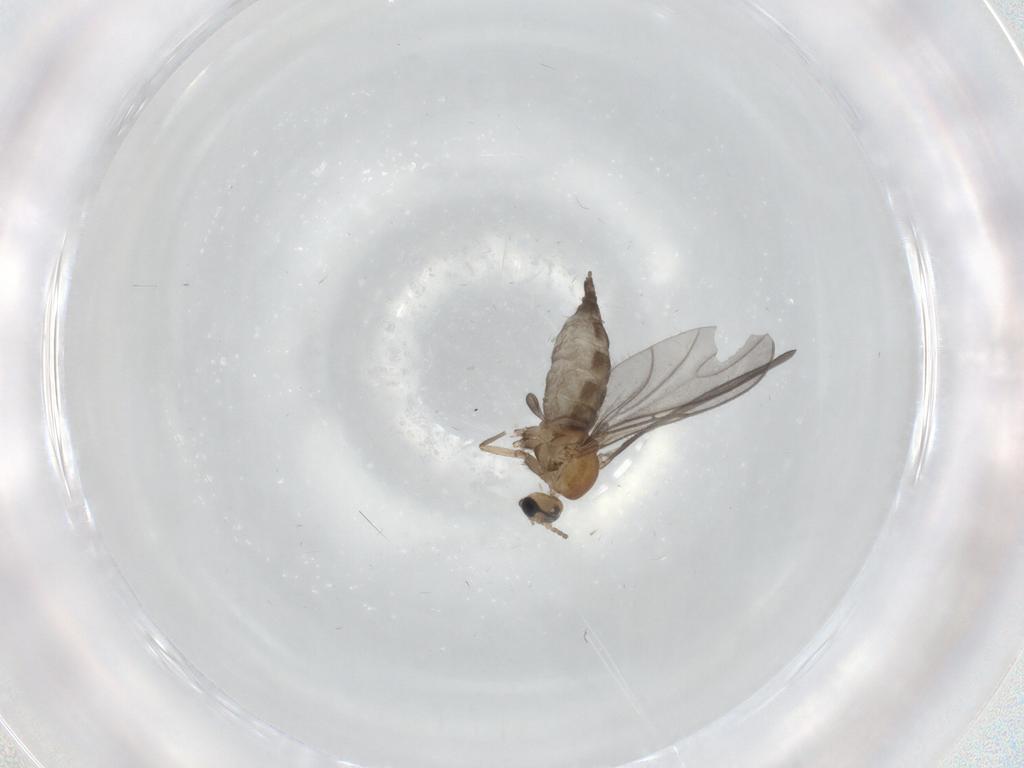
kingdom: Animalia
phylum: Arthropoda
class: Insecta
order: Diptera
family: Sciaridae
